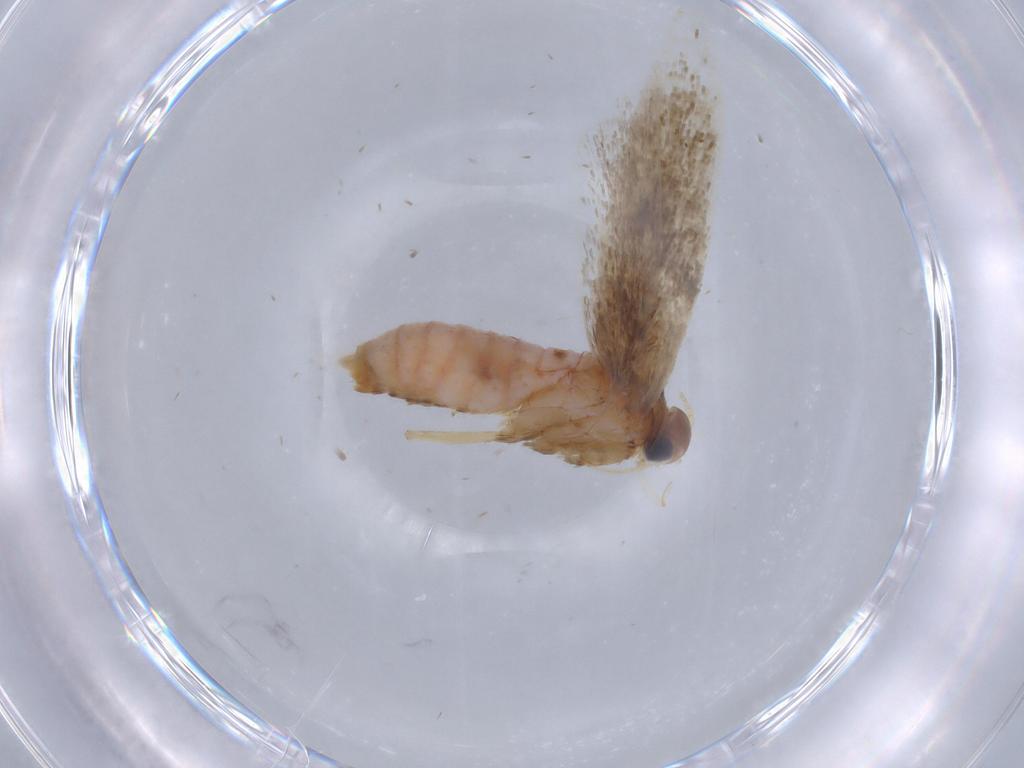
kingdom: Animalia
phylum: Arthropoda
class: Insecta
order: Lepidoptera
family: Gelechiidae
